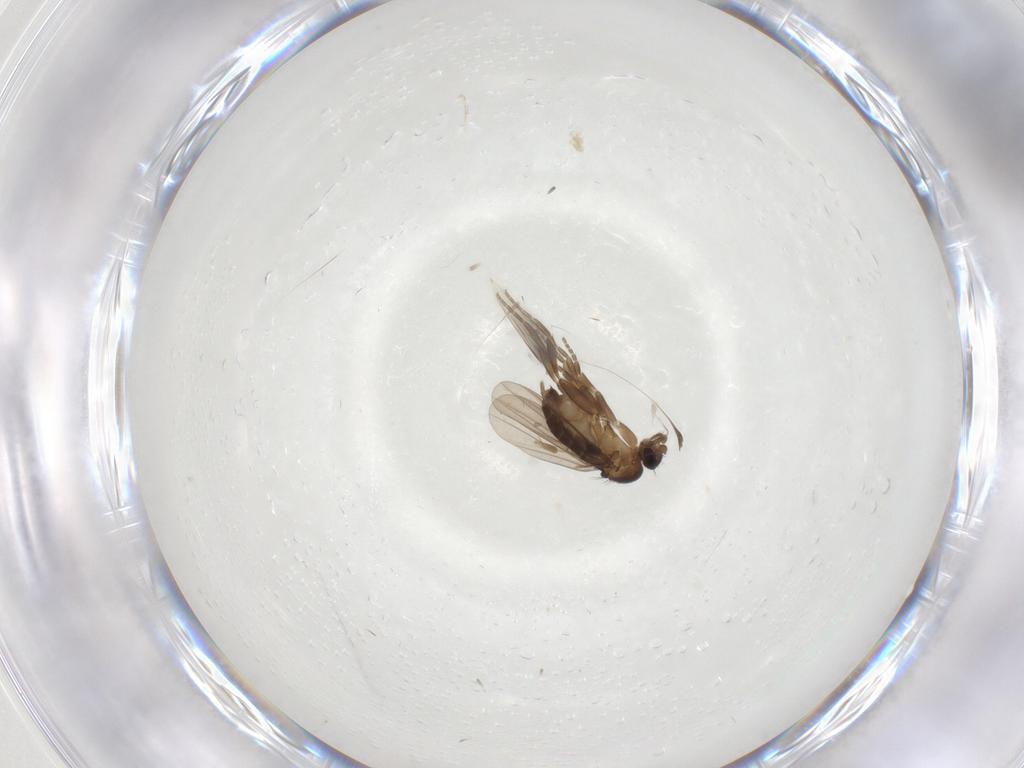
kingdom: Animalia
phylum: Arthropoda
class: Insecta
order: Diptera
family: Phoridae
